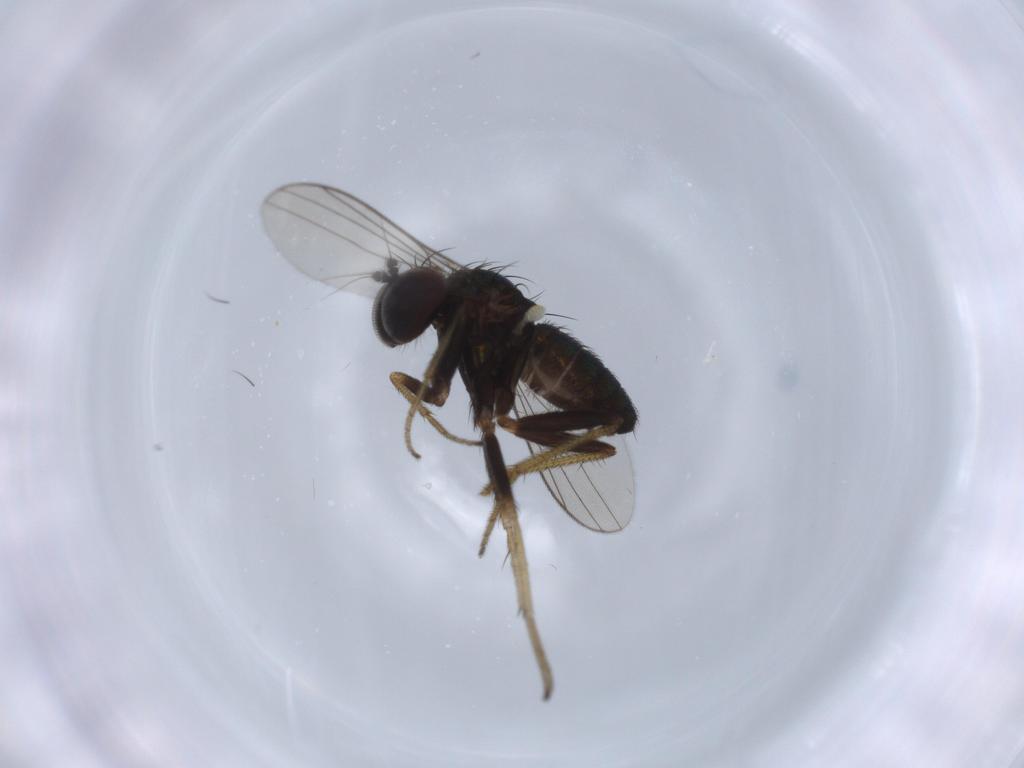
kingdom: Animalia
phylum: Arthropoda
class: Insecta
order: Diptera
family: Dolichopodidae
